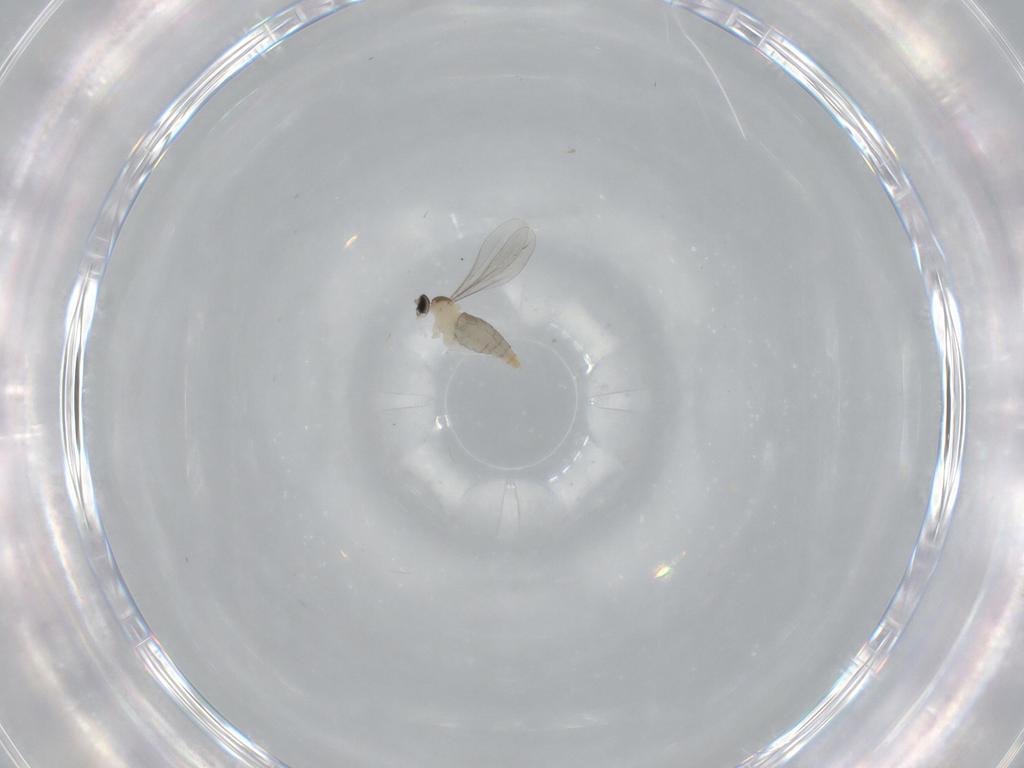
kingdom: Animalia
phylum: Arthropoda
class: Insecta
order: Diptera
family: Phoridae
